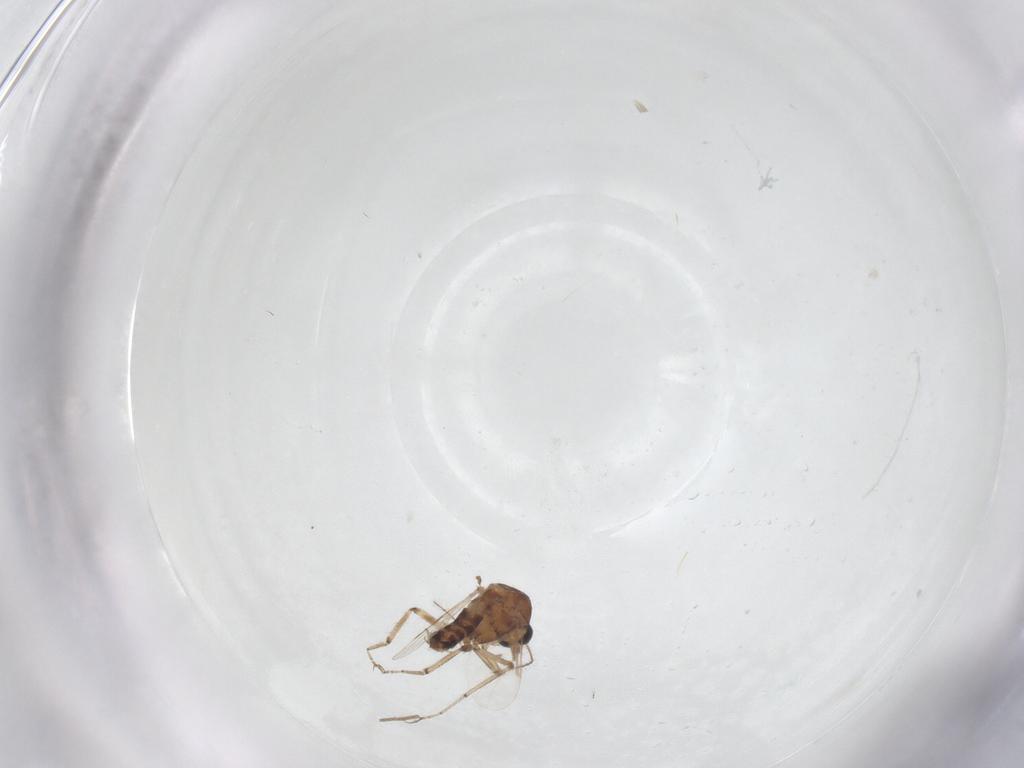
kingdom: Animalia
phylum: Arthropoda
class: Insecta
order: Diptera
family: Ceratopogonidae
